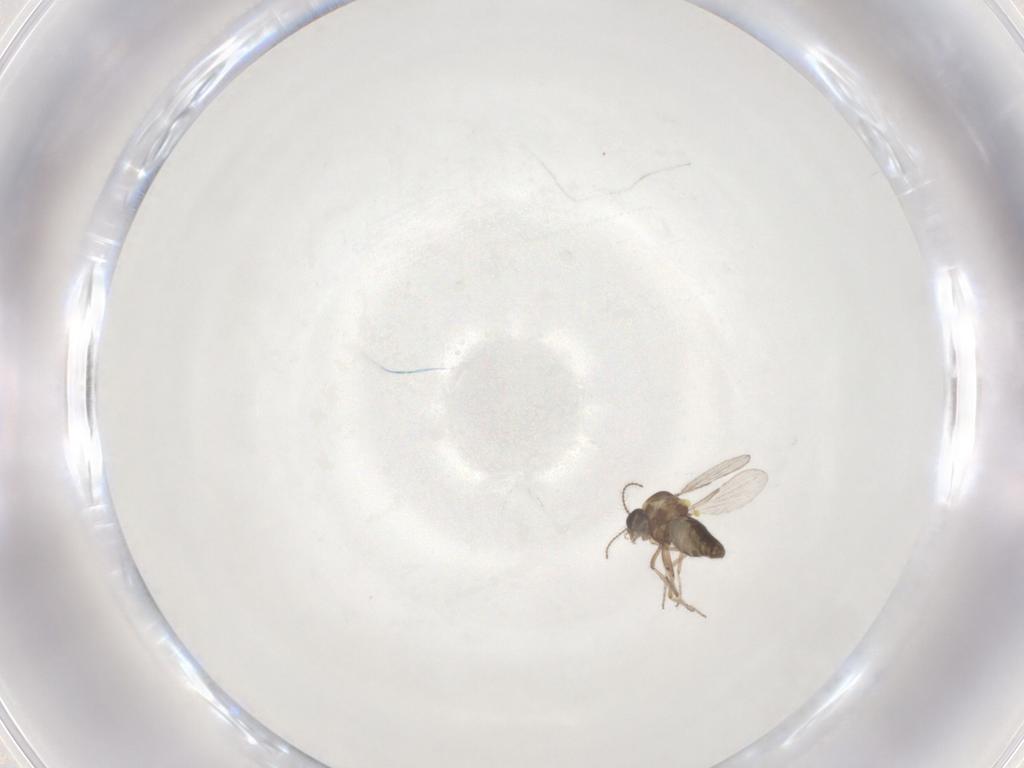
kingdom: Animalia
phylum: Arthropoda
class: Insecta
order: Diptera
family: Ceratopogonidae
